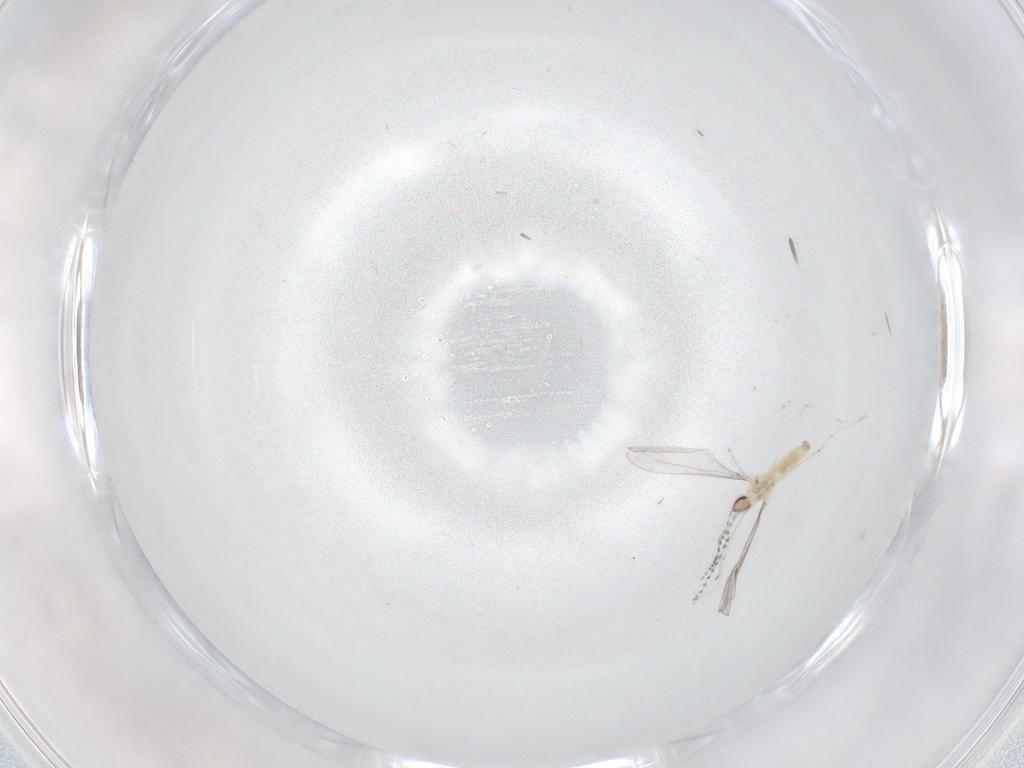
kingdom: Animalia
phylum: Arthropoda
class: Insecta
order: Diptera
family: Cecidomyiidae
